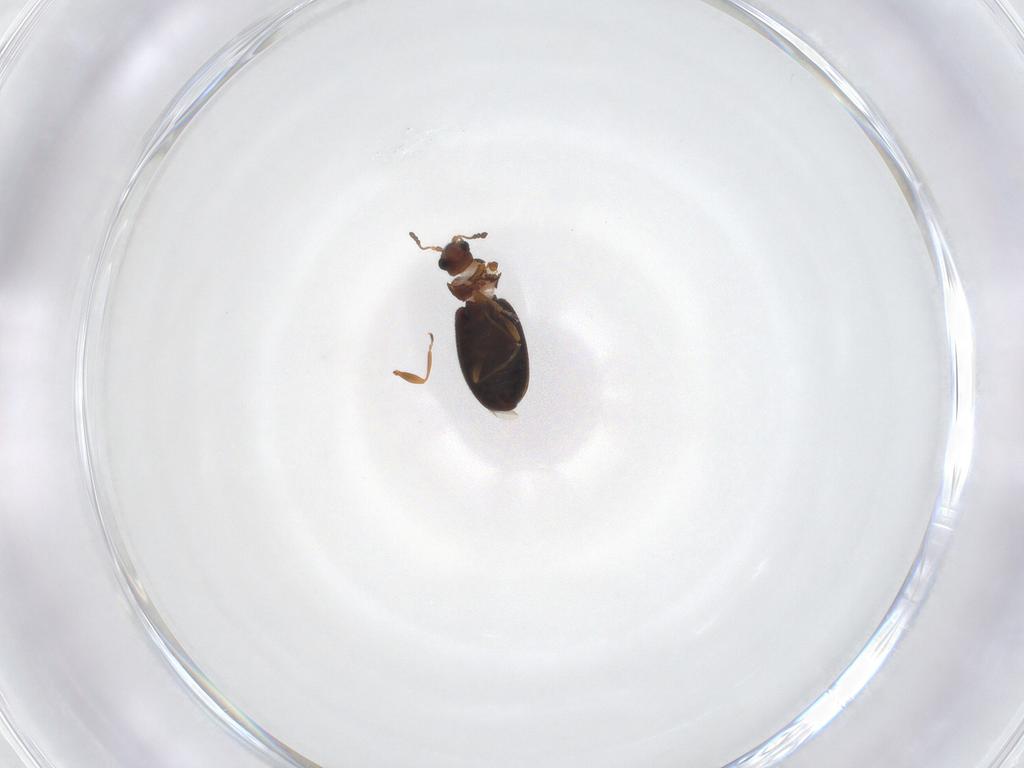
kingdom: Animalia
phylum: Arthropoda
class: Insecta
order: Coleoptera
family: Latridiidae
